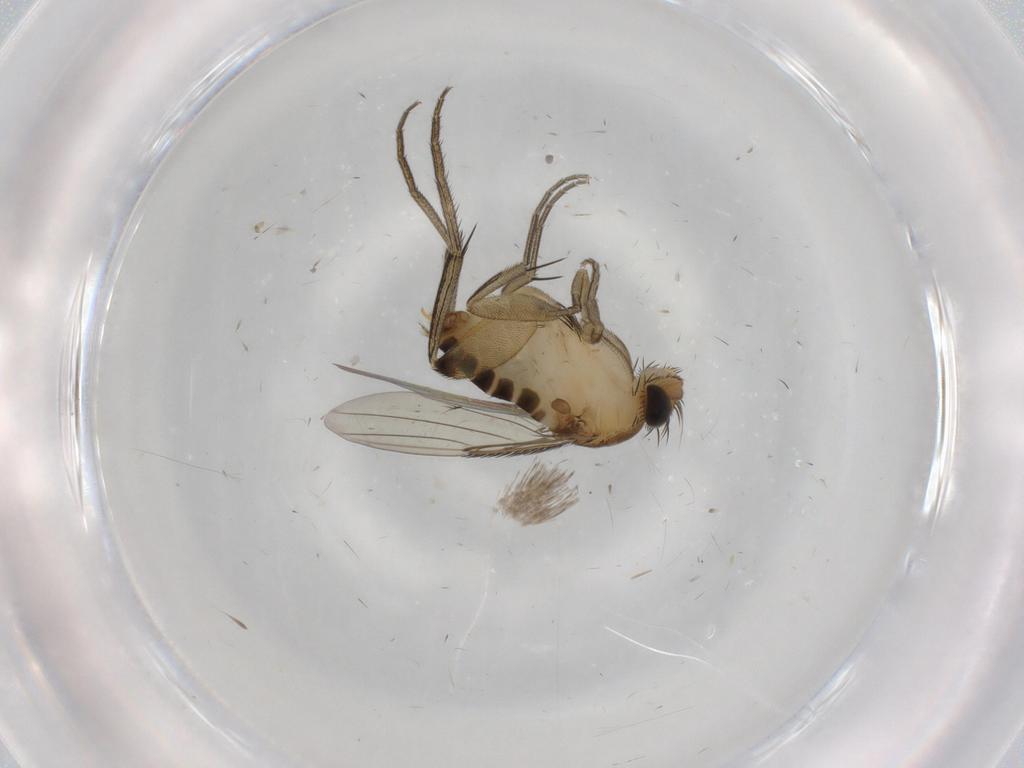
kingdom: Animalia
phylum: Arthropoda
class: Insecta
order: Diptera
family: Phoridae
